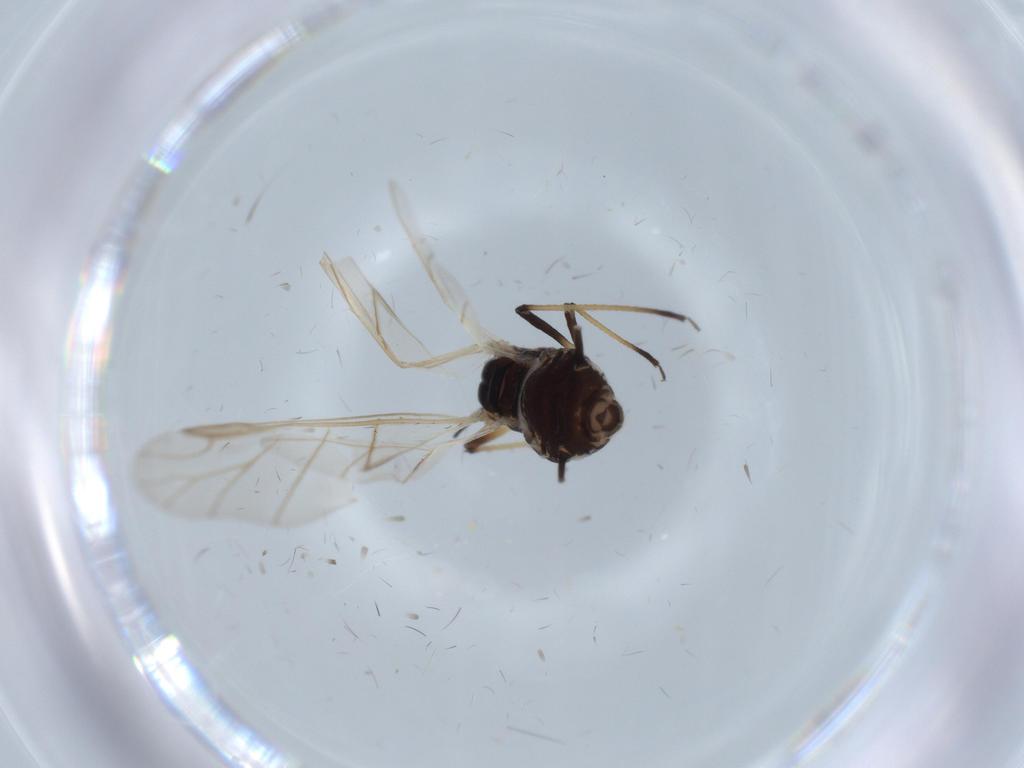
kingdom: Animalia
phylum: Arthropoda
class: Insecta
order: Hemiptera
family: Aphididae
